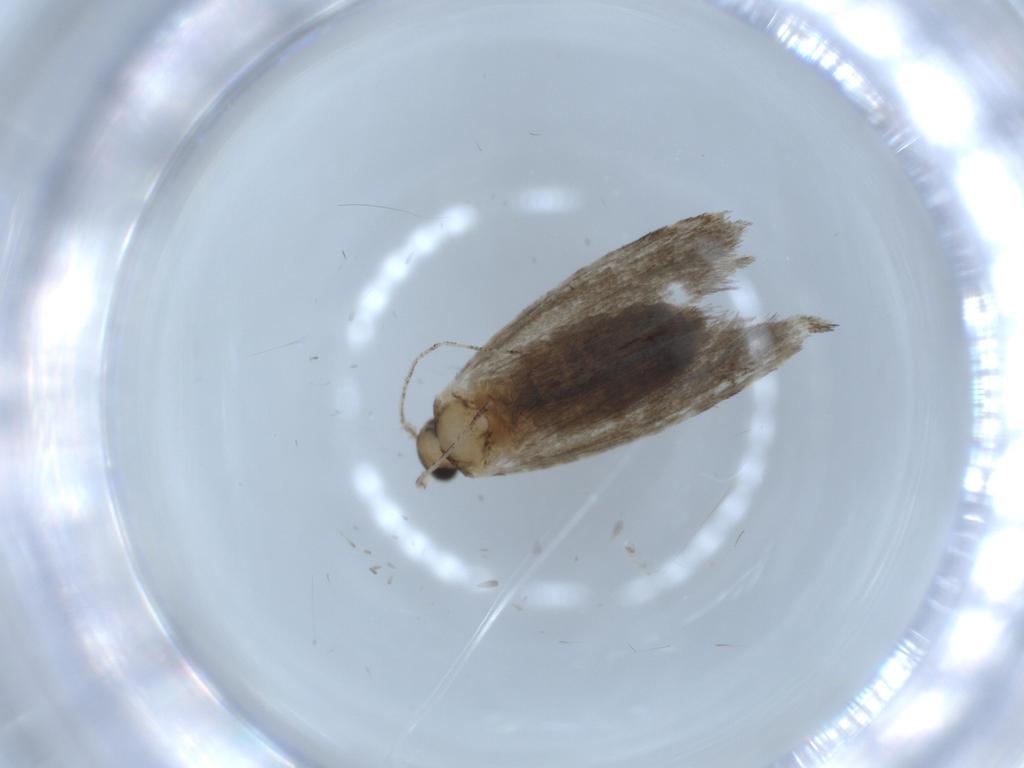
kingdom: Animalia
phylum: Arthropoda
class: Insecta
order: Lepidoptera
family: Tineidae
